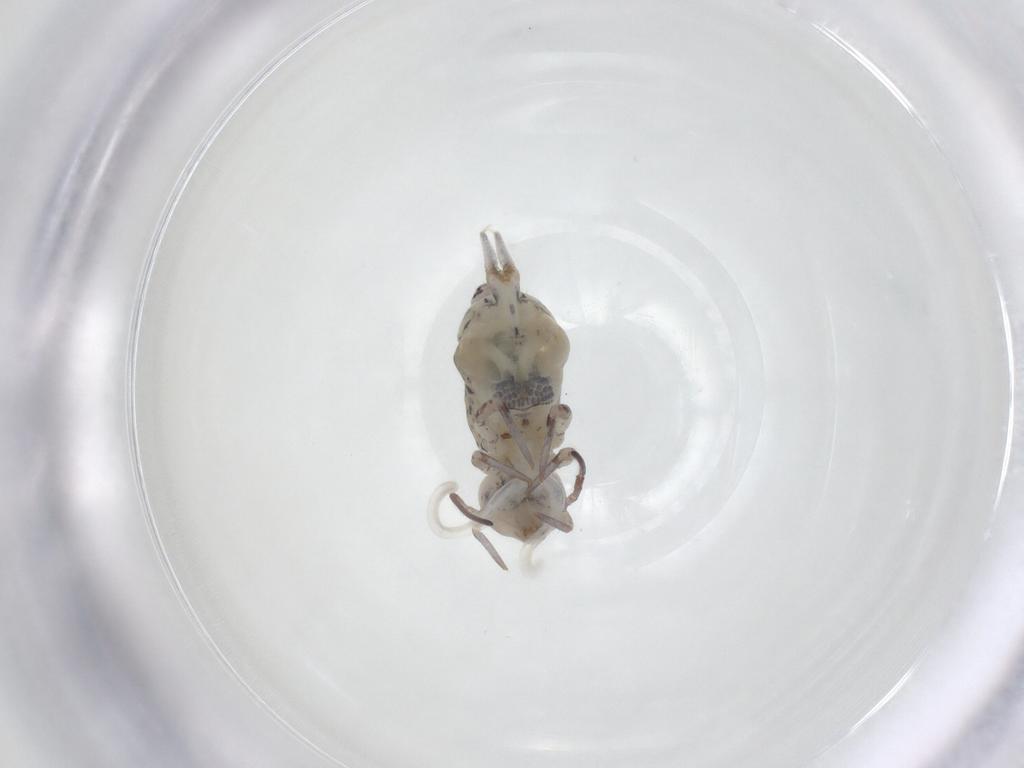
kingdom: Animalia
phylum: Arthropoda
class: Collembola
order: Symphypleona
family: Bourletiellidae
